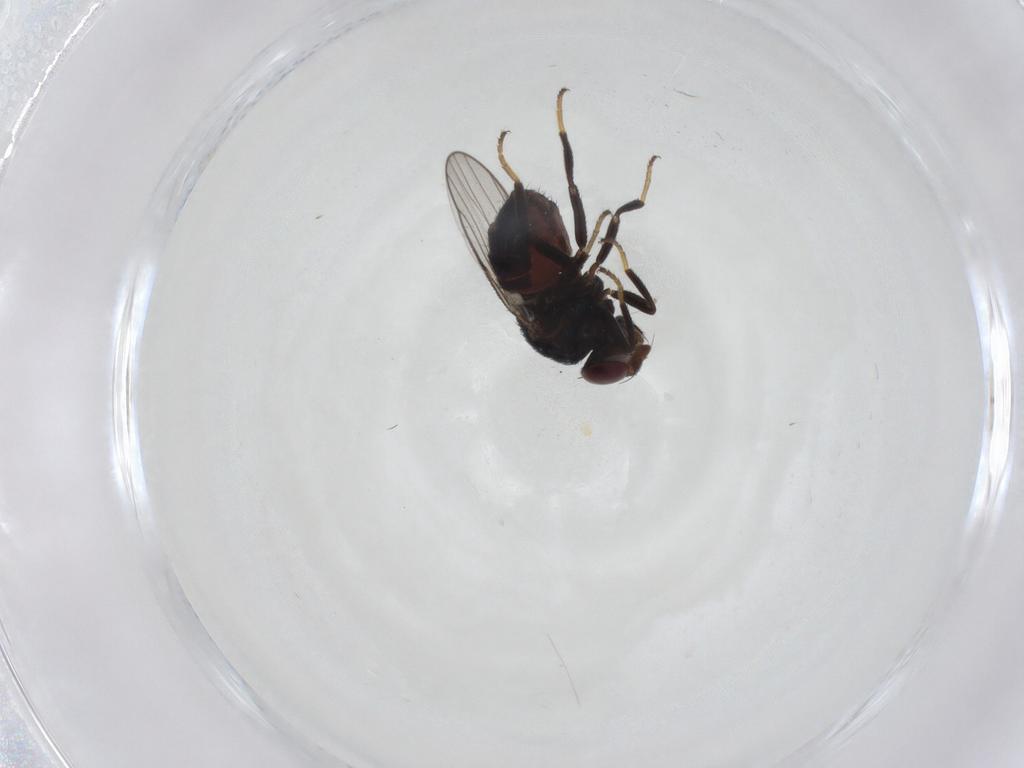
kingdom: Animalia
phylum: Arthropoda
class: Insecta
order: Diptera
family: Chloropidae
